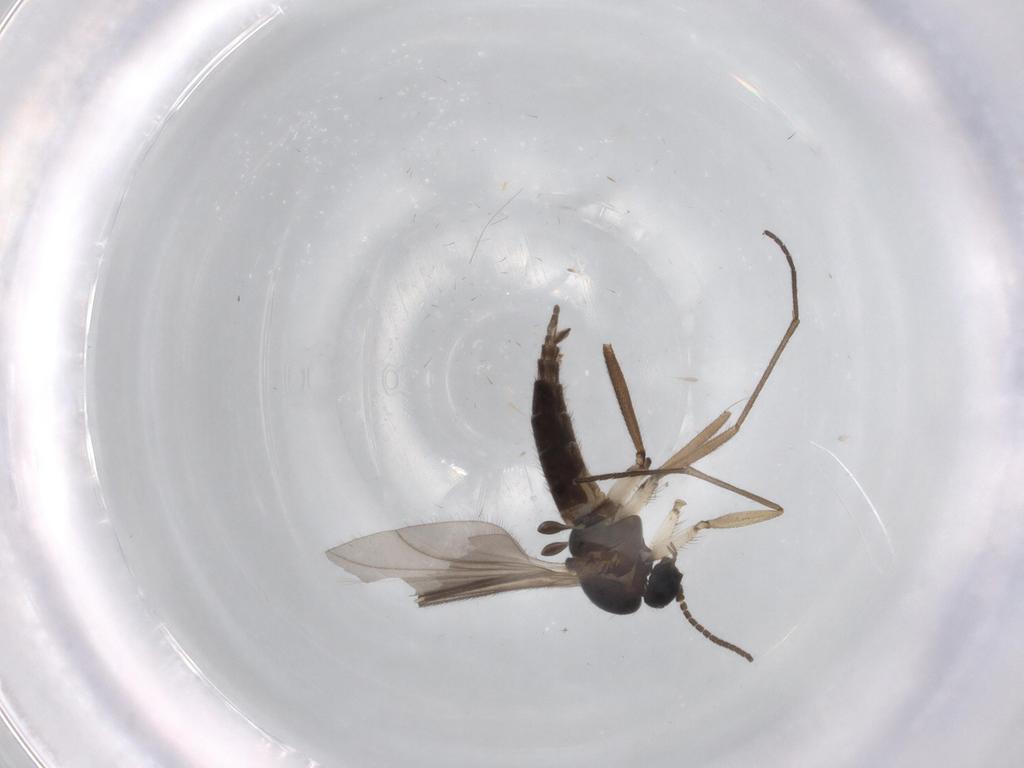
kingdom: Animalia
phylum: Arthropoda
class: Insecta
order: Diptera
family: Sciaridae
